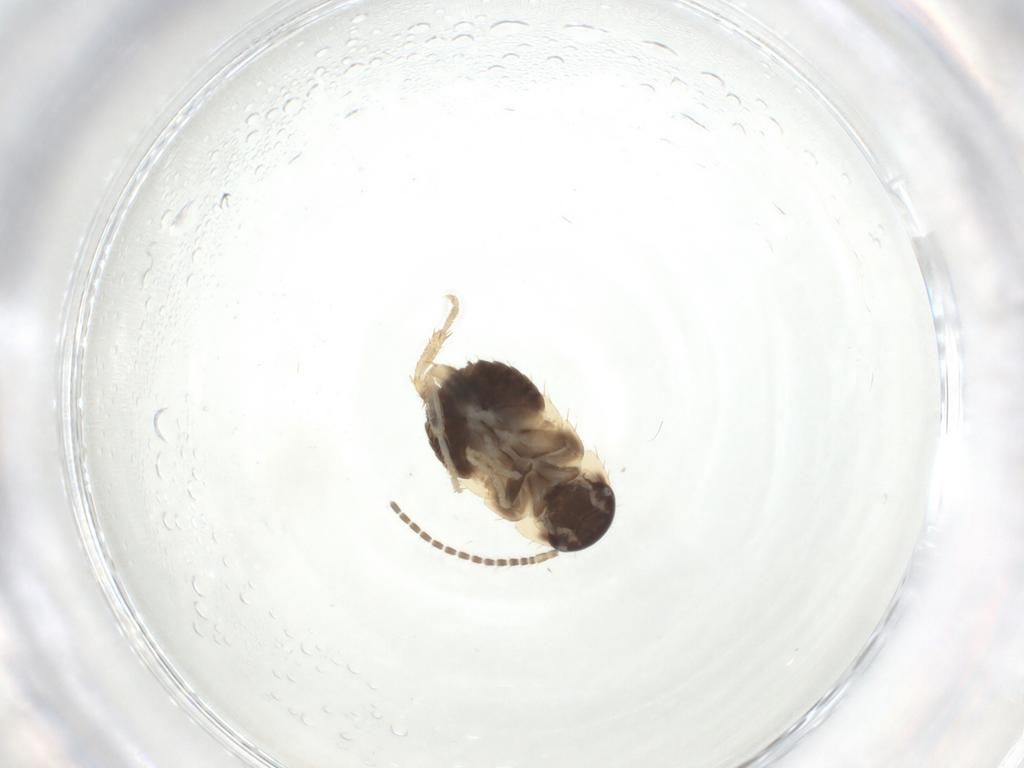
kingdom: Animalia
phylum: Arthropoda
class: Insecta
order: Blattodea
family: Ectobiidae
